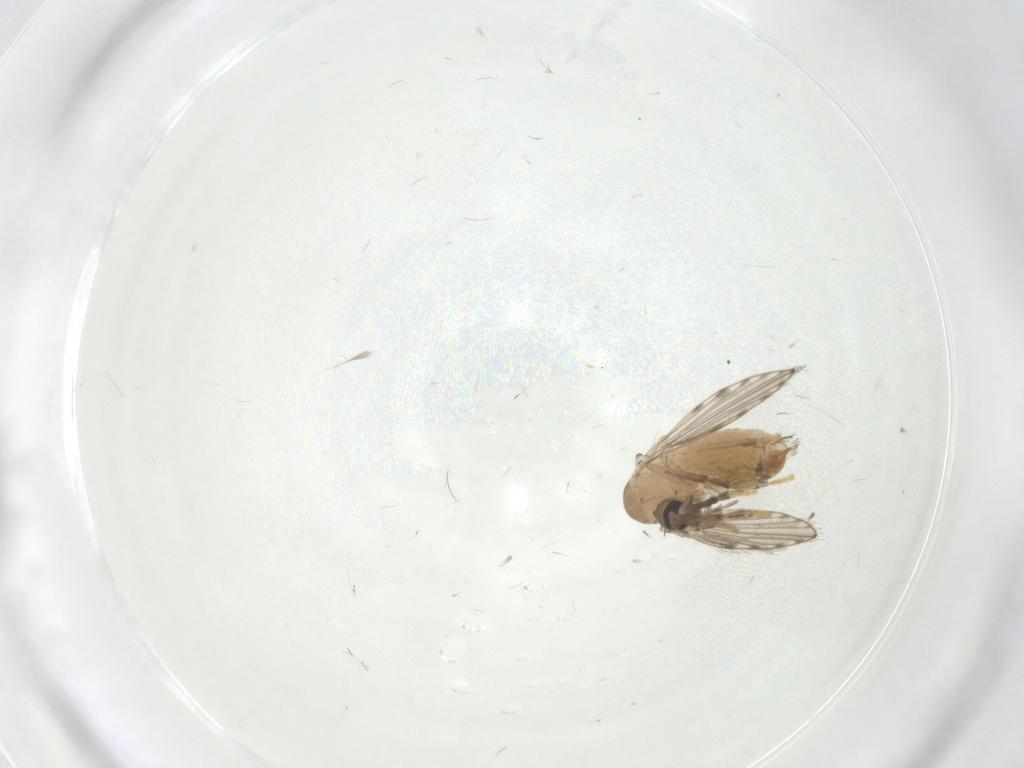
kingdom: Animalia
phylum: Arthropoda
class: Insecta
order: Diptera
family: Psychodidae
